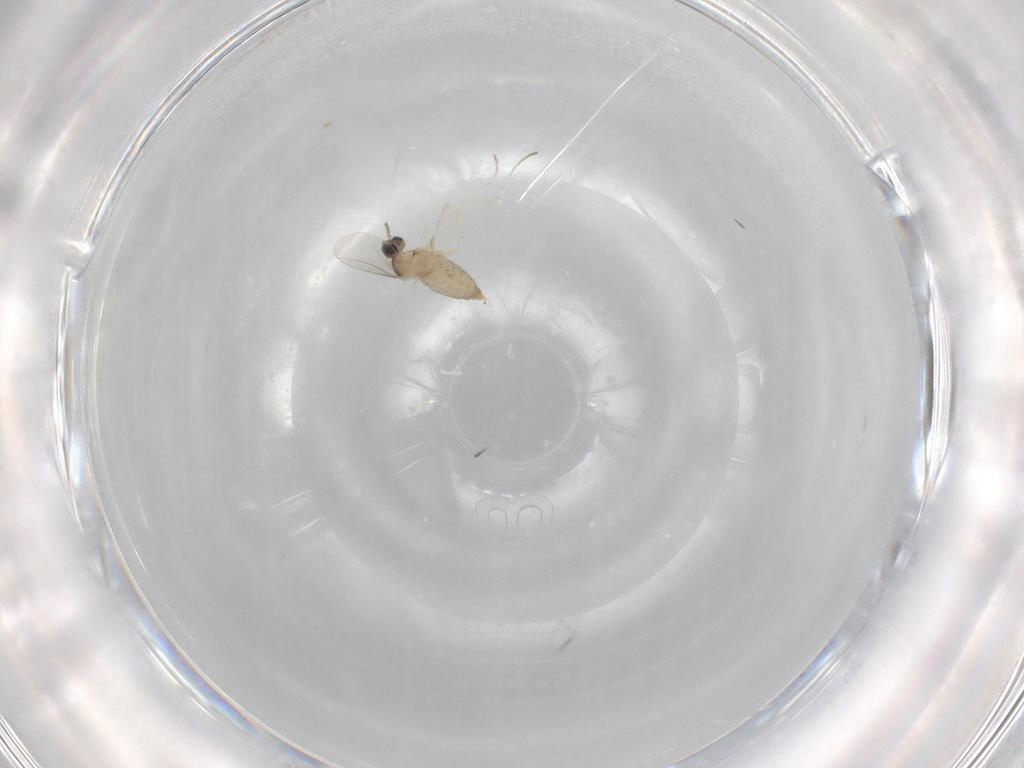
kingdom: Animalia
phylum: Arthropoda
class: Insecta
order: Diptera
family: Cecidomyiidae
